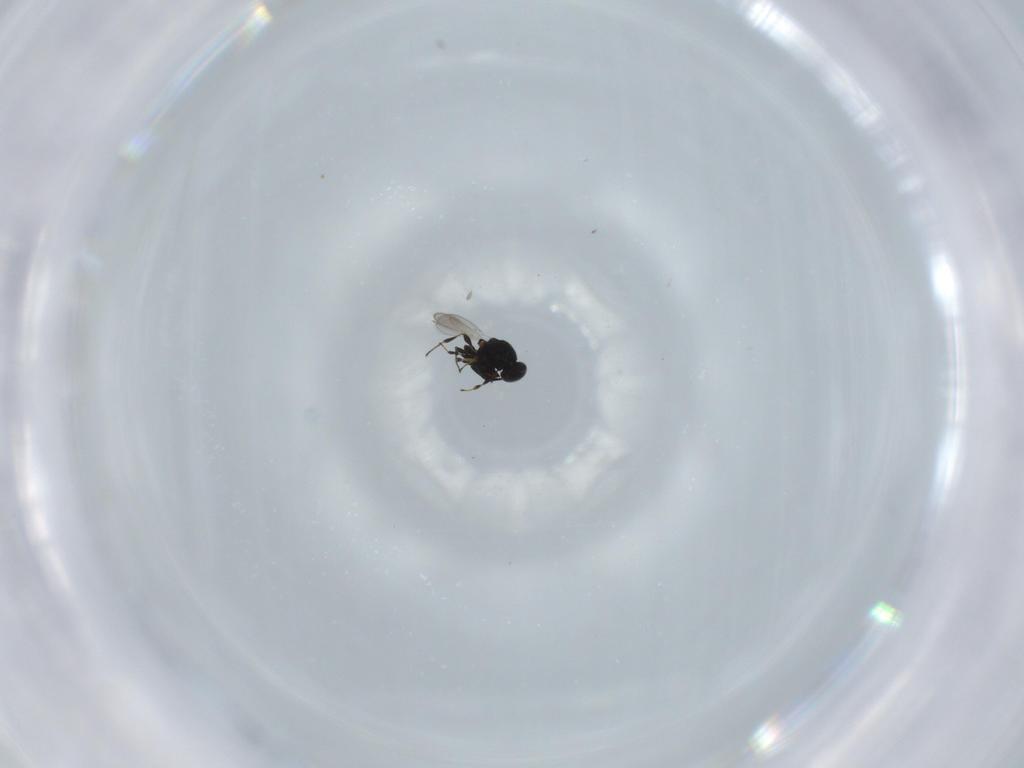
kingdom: Animalia
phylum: Arthropoda
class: Insecta
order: Hymenoptera
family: Platygastridae
